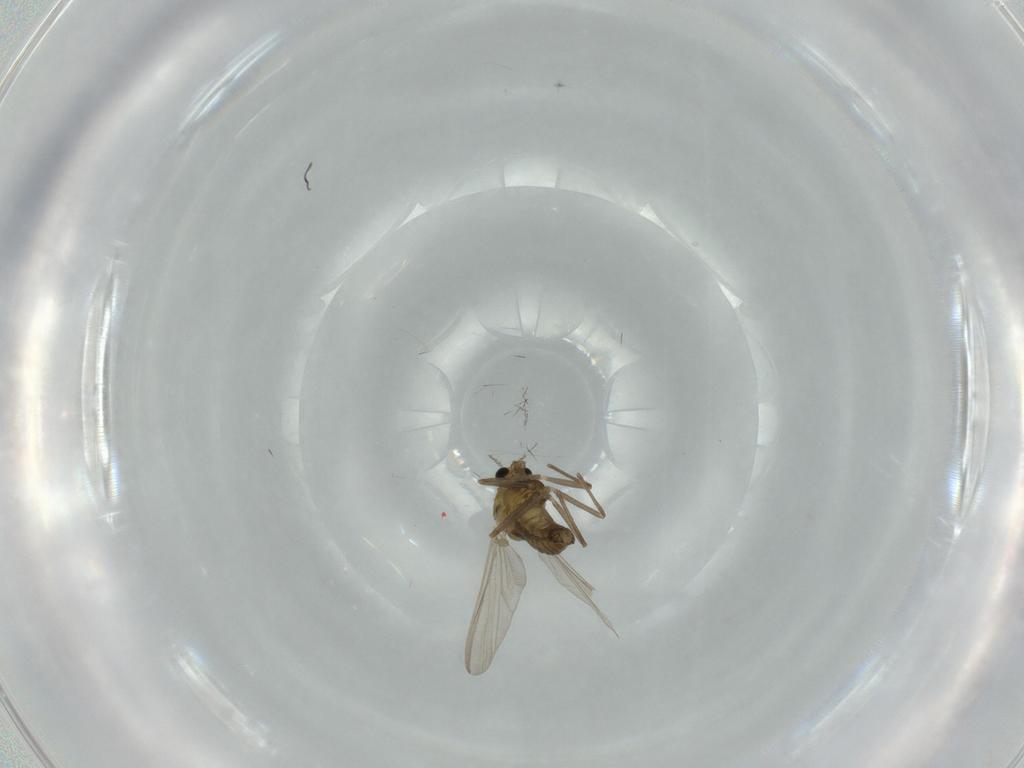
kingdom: Animalia
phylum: Arthropoda
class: Insecta
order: Diptera
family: Chironomidae
